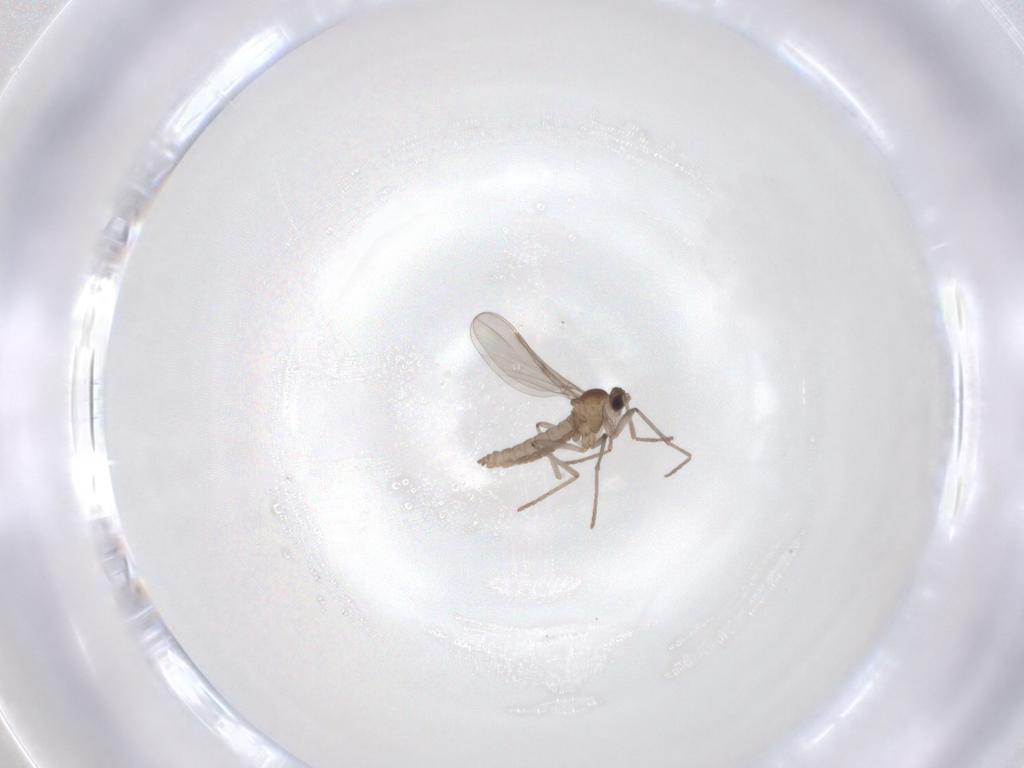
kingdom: Animalia
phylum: Arthropoda
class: Insecta
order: Diptera
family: Cecidomyiidae
